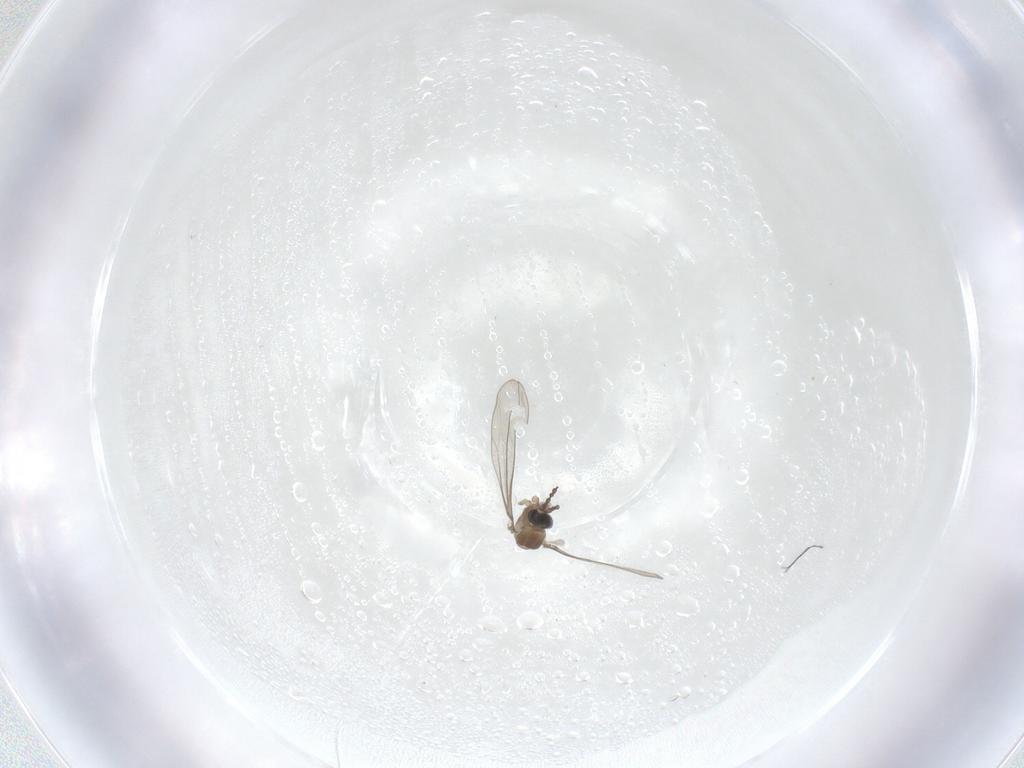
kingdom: Animalia
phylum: Arthropoda
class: Insecta
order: Diptera
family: Cecidomyiidae
